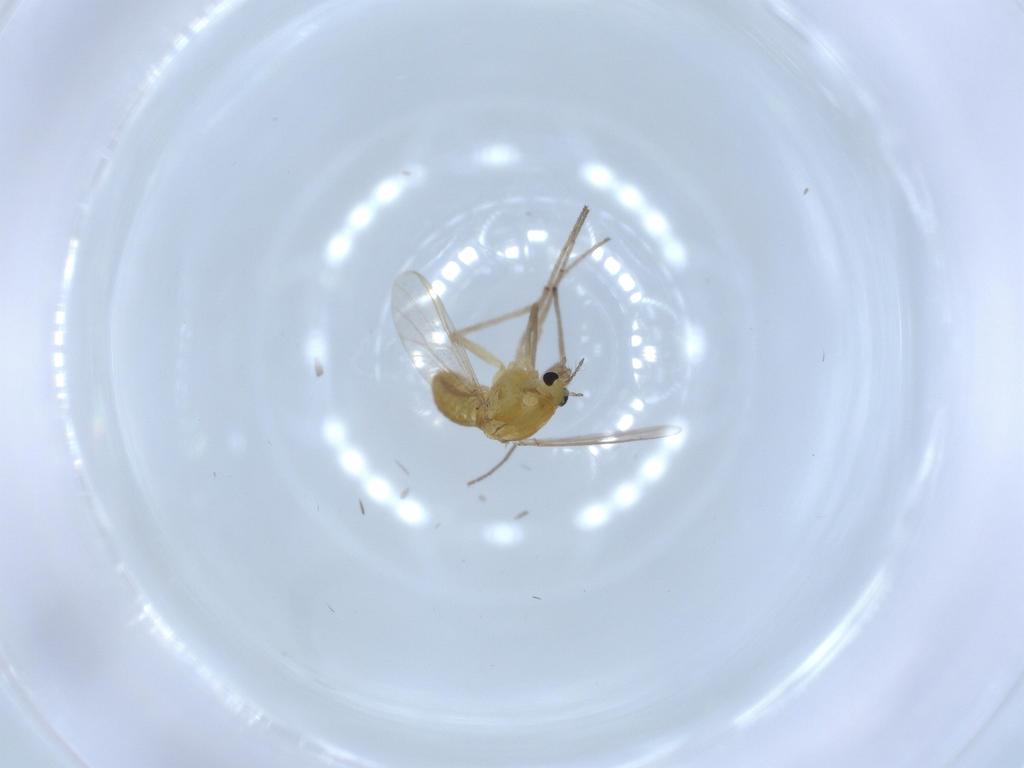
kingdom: Animalia
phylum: Arthropoda
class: Insecta
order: Diptera
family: Chironomidae
